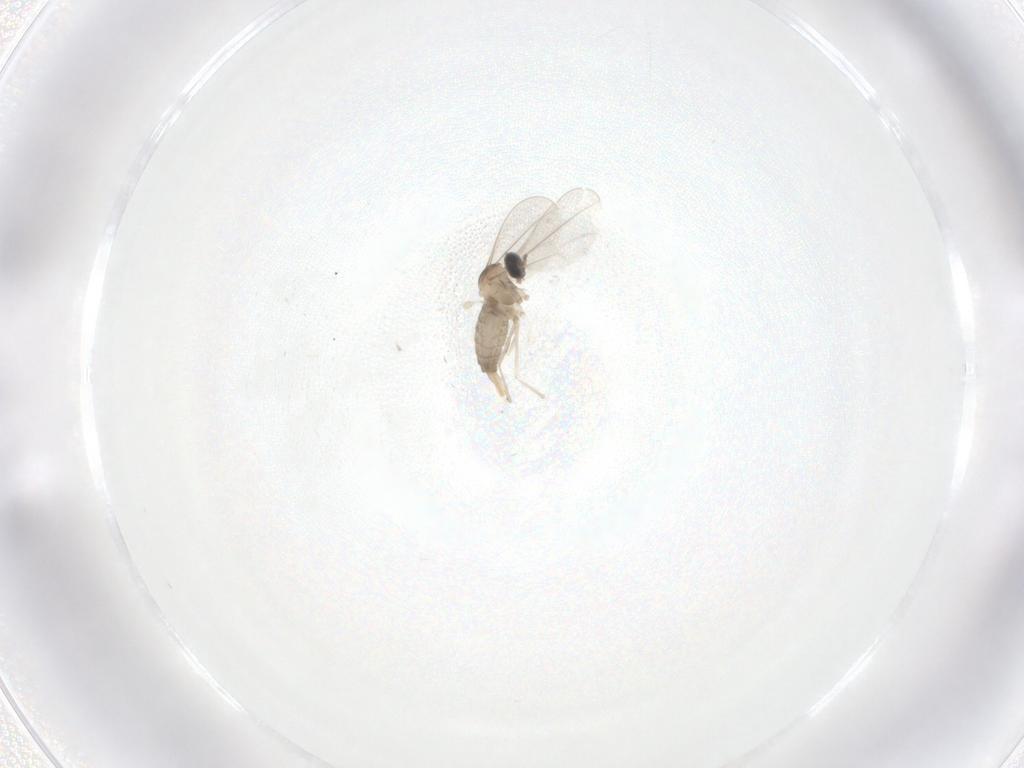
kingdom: Animalia
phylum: Arthropoda
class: Insecta
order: Diptera
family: Cecidomyiidae
